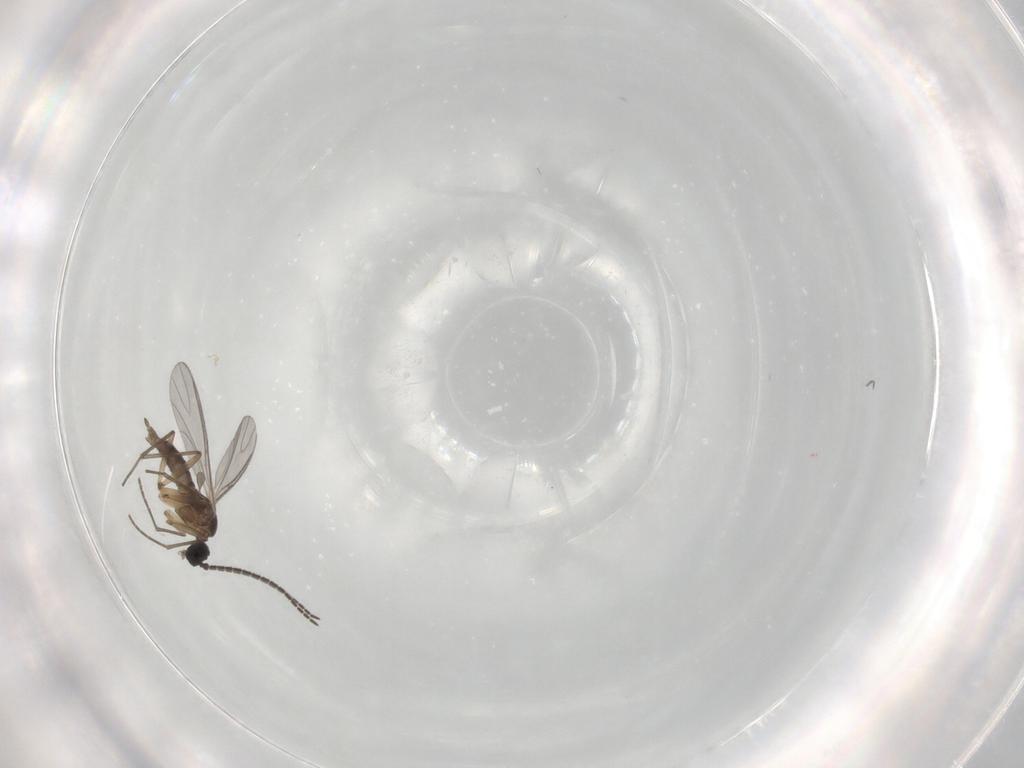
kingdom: Animalia
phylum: Arthropoda
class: Insecta
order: Diptera
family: Sciaridae
